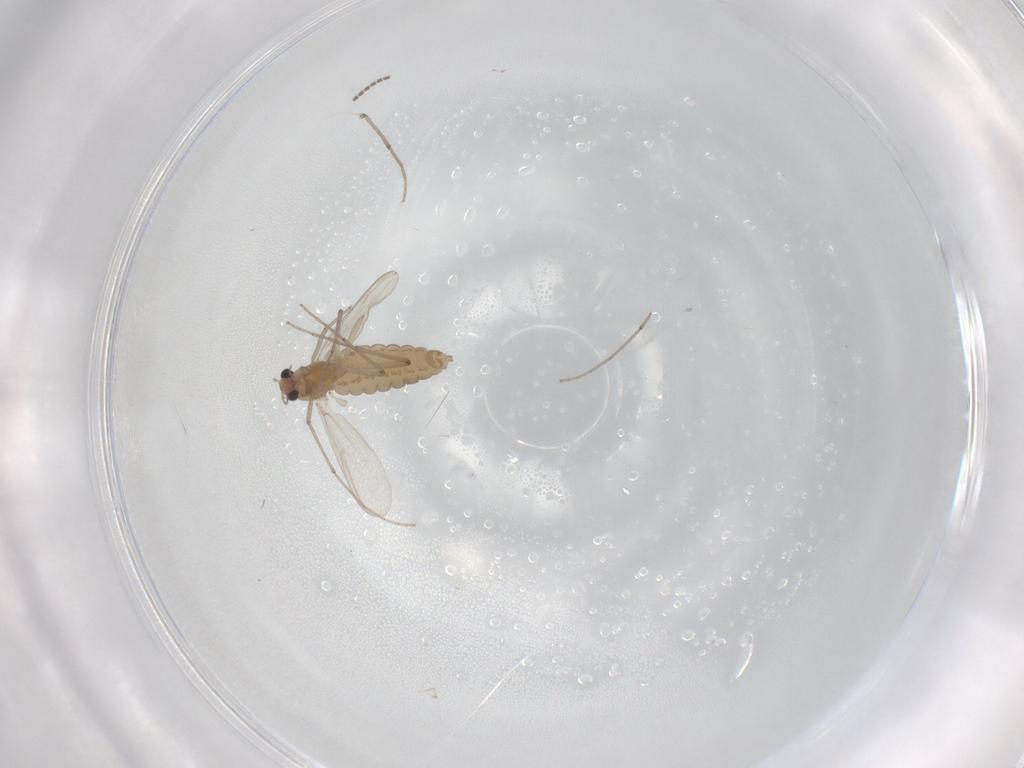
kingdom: Animalia
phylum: Arthropoda
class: Insecta
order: Diptera
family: Chironomidae
